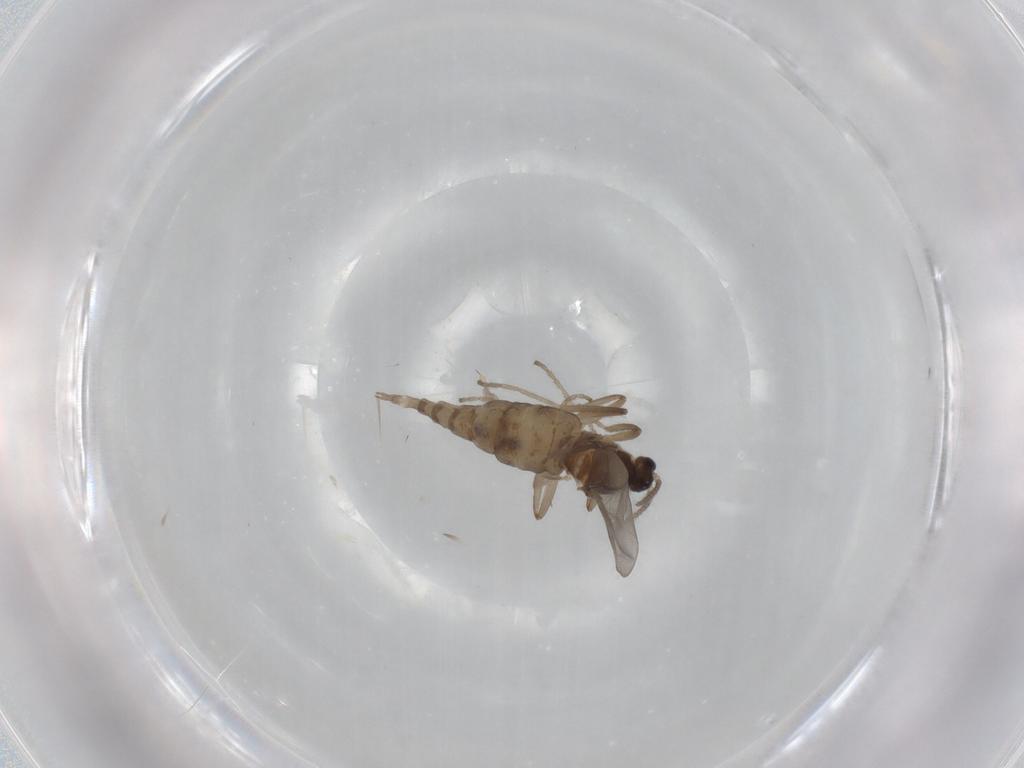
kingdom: Animalia
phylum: Arthropoda
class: Insecta
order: Diptera
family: Cecidomyiidae
